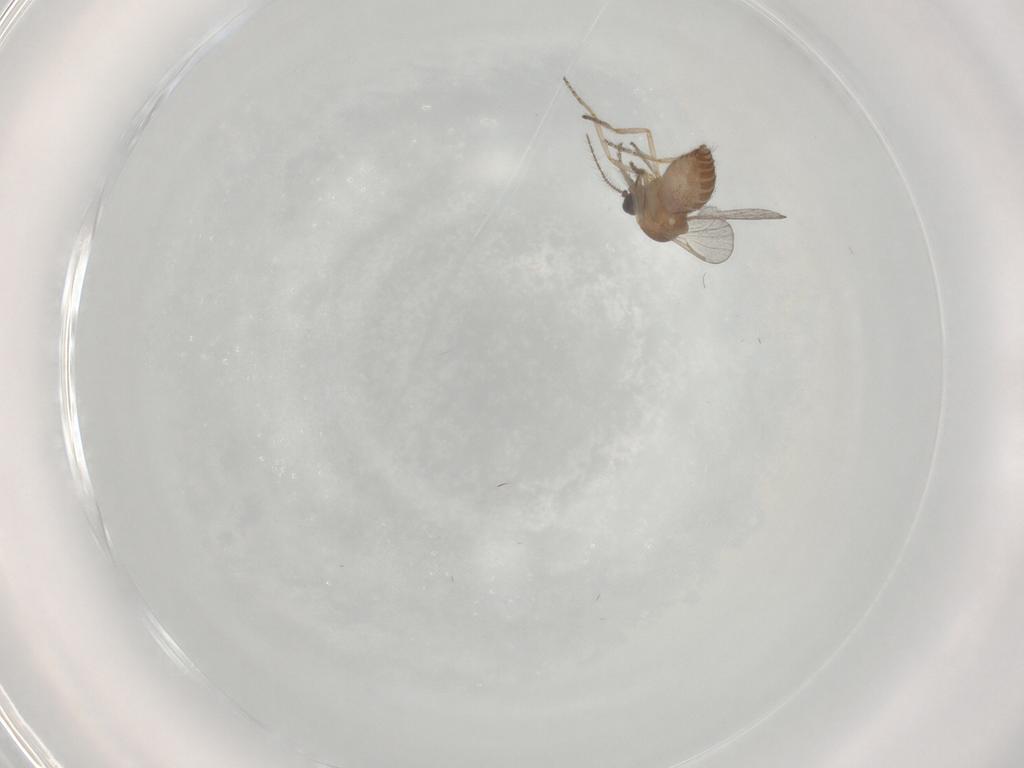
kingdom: Animalia
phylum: Arthropoda
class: Insecta
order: Diptera
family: Ceratopogonidae
